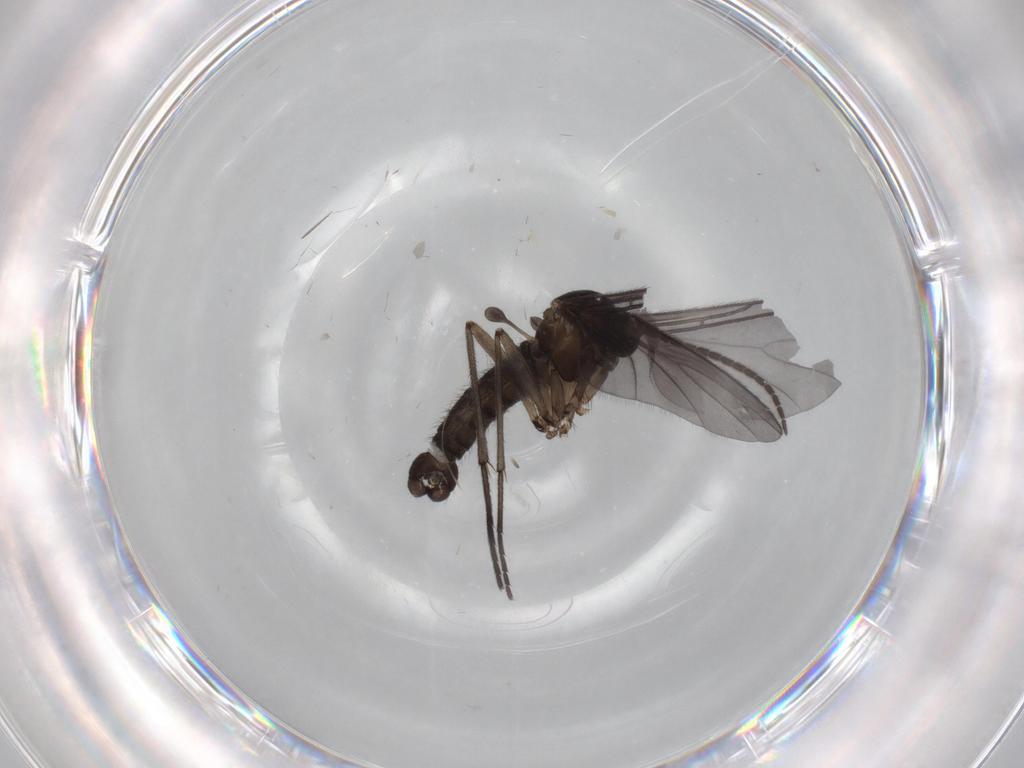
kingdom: Animalia
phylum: Arthropoda
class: Insecta
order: Diptera
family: Sciaridae
